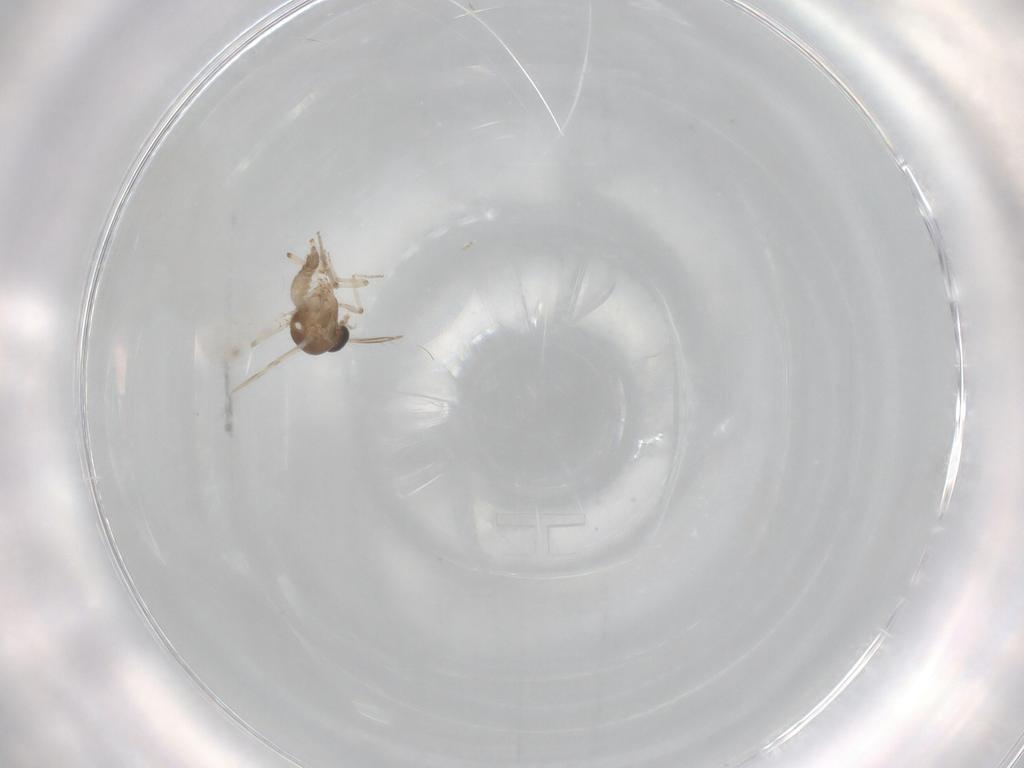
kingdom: Animalia
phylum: Arthropoda
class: Insecta
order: Diptera
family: Ceratopogonidae
